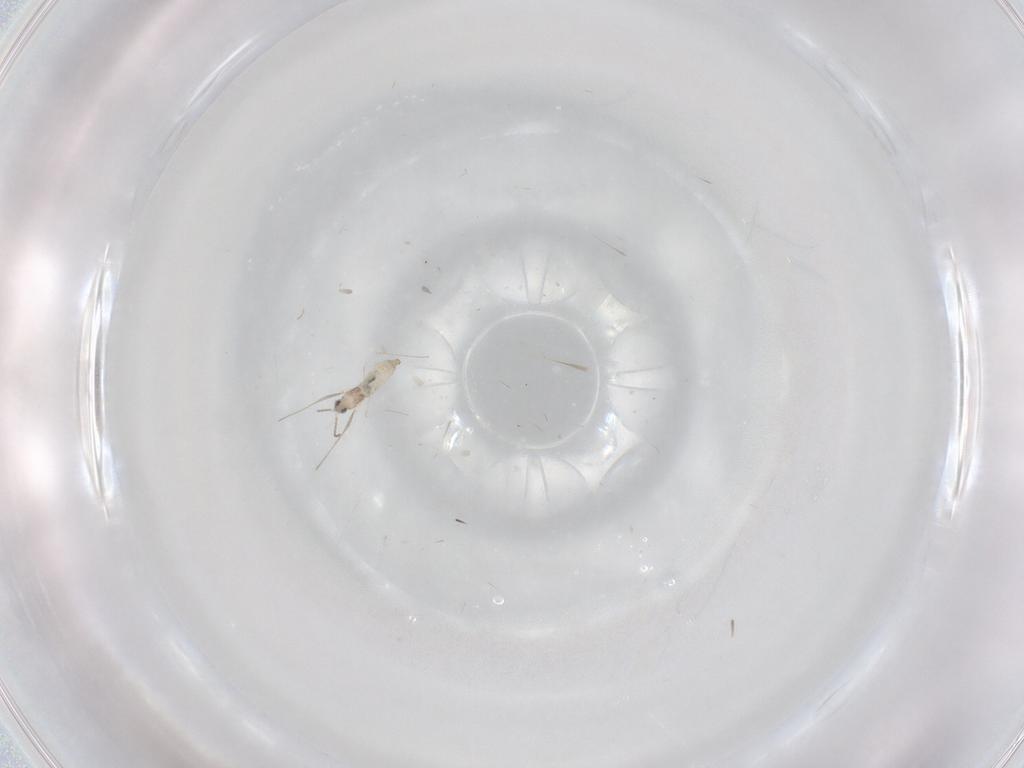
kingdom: Animalia
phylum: Arthropoda
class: Insecta
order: Diptera
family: Cecidomyiidae
